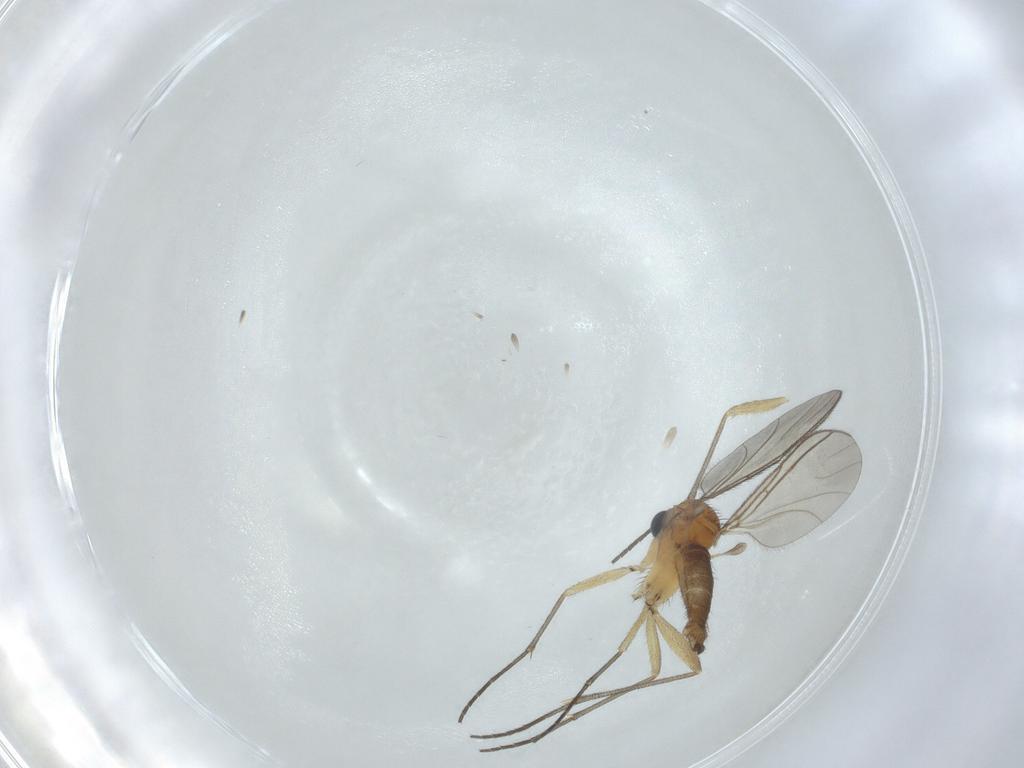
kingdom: Animalia
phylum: Arthropoda
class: Insecta
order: Diptera
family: Sciaridae
